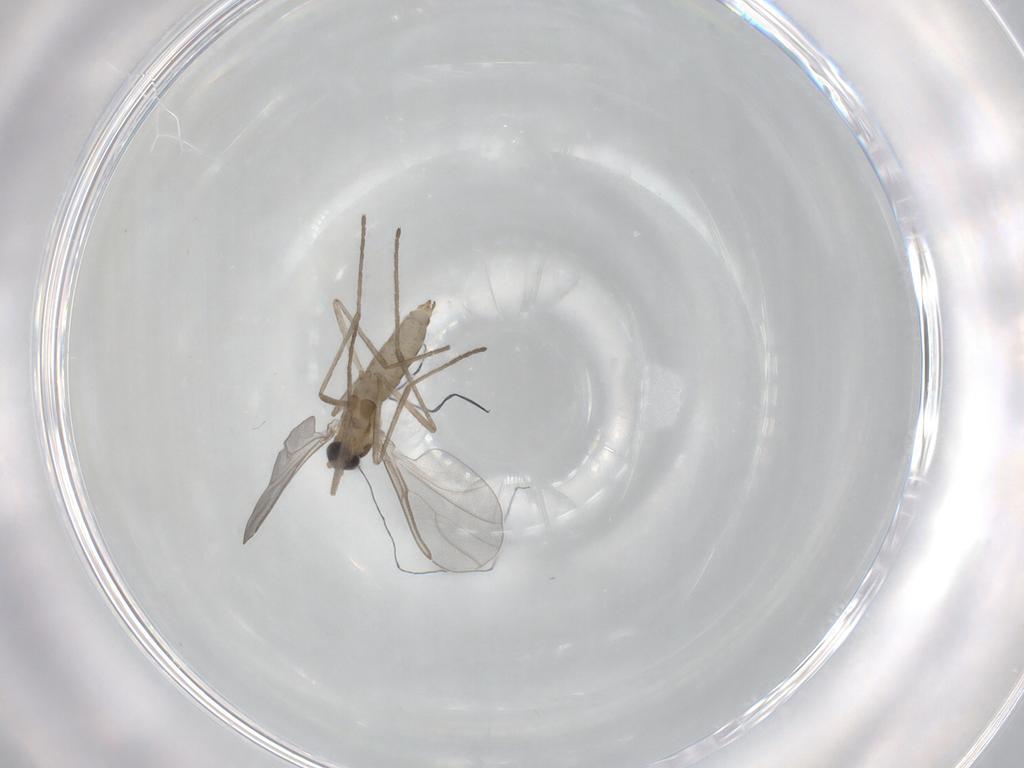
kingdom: Animalia
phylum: Arthropoda
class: Insecta
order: Diptera
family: Cecidomyiidae
